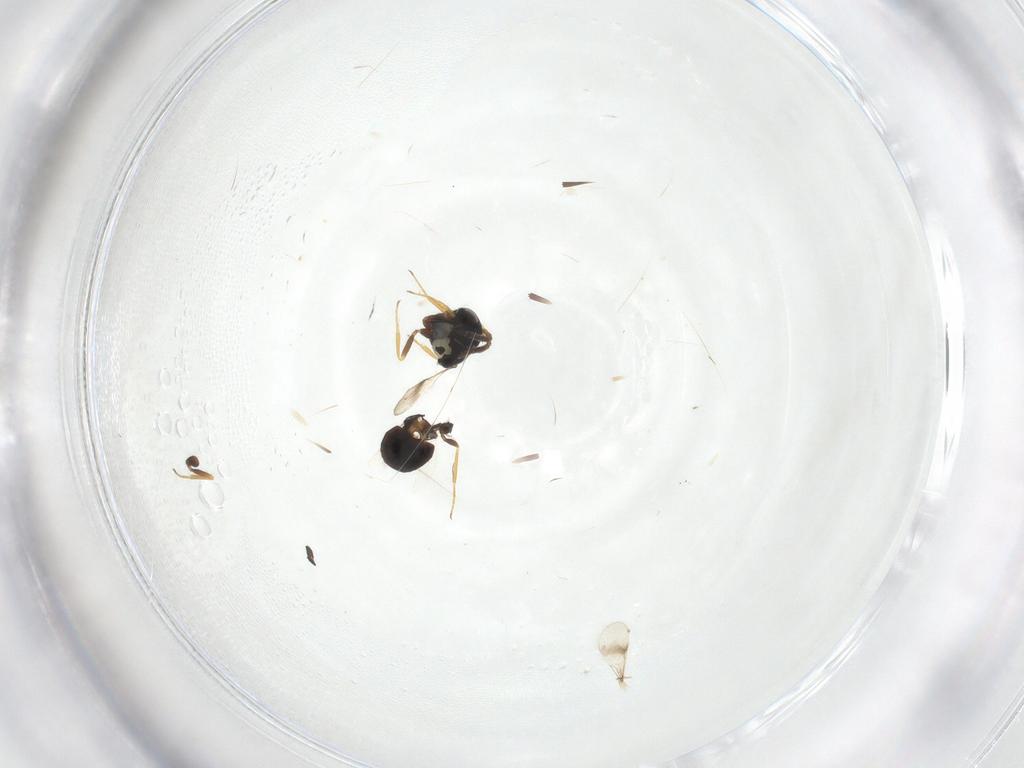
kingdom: Animalia
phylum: Arthropoda
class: Insecta
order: Hymenoptera
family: Scelionidae
